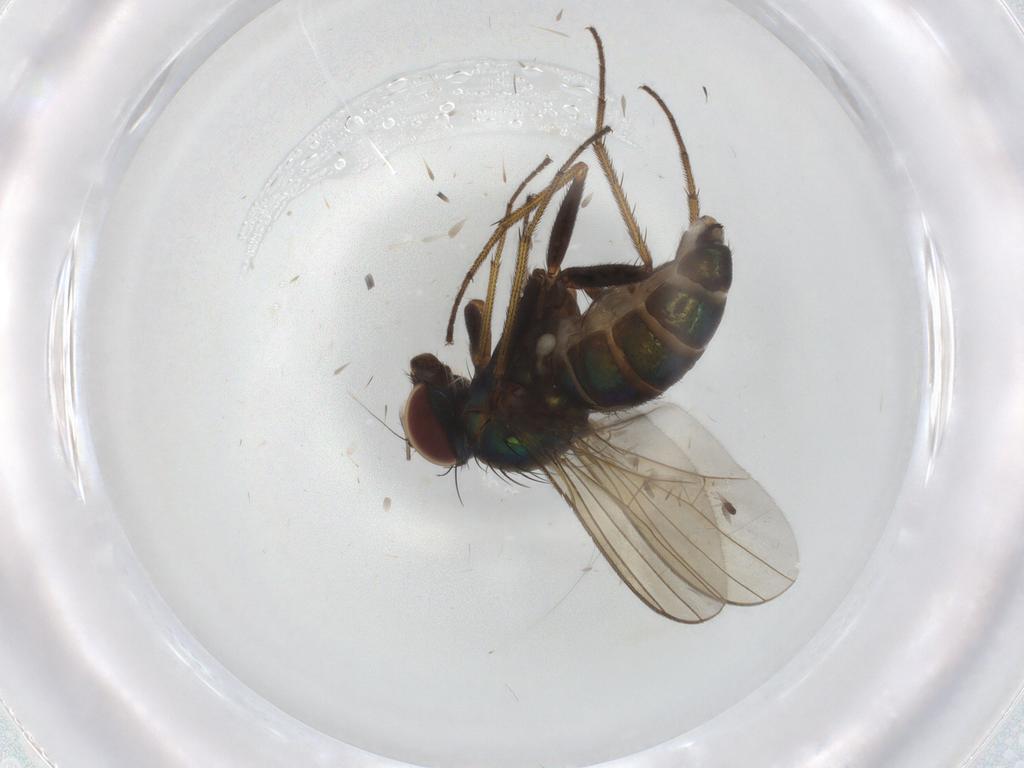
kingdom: Animalia
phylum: Arthropoda
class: Insecta
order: Diptera
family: Dolichopodidae
